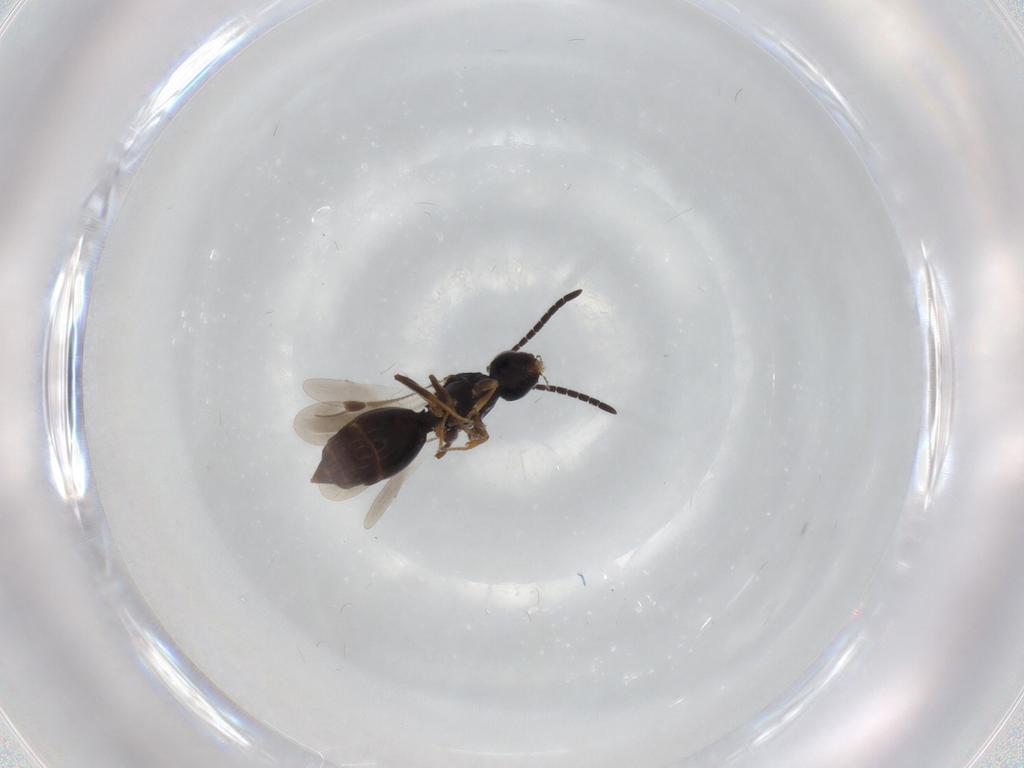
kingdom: Animalia
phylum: Arthropoda
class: Insecta
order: Hymenoptera
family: Megaspilidae
